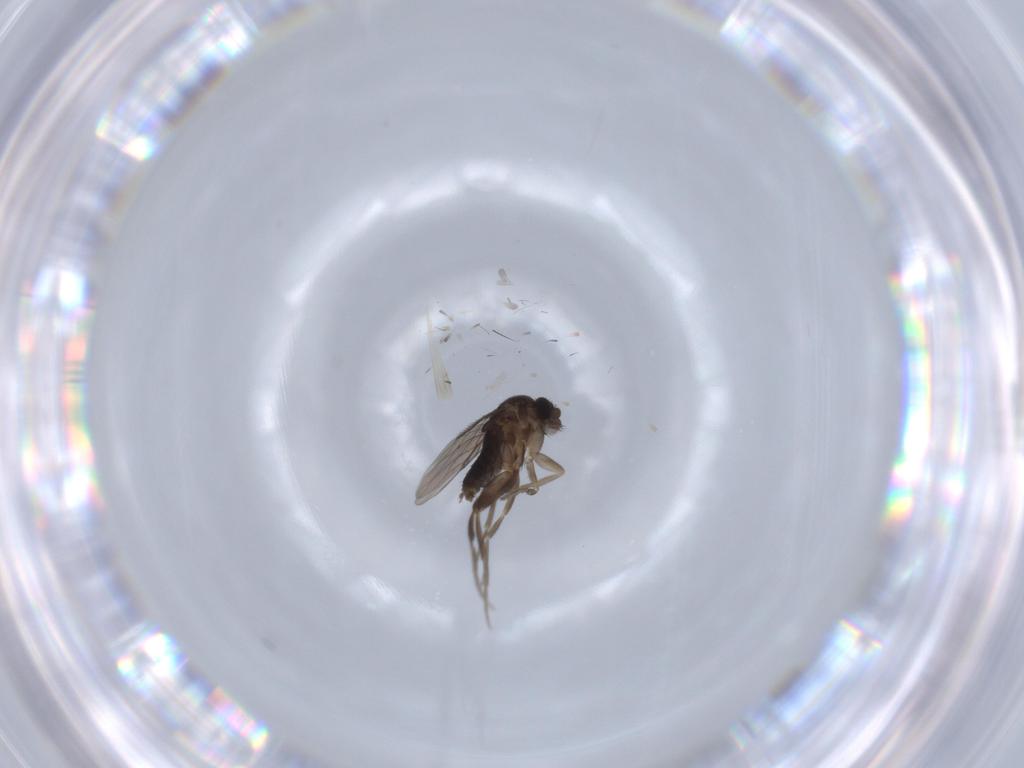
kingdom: Animalia
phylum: Arthropoda
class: Insecta
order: Diptera
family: Phoridae
